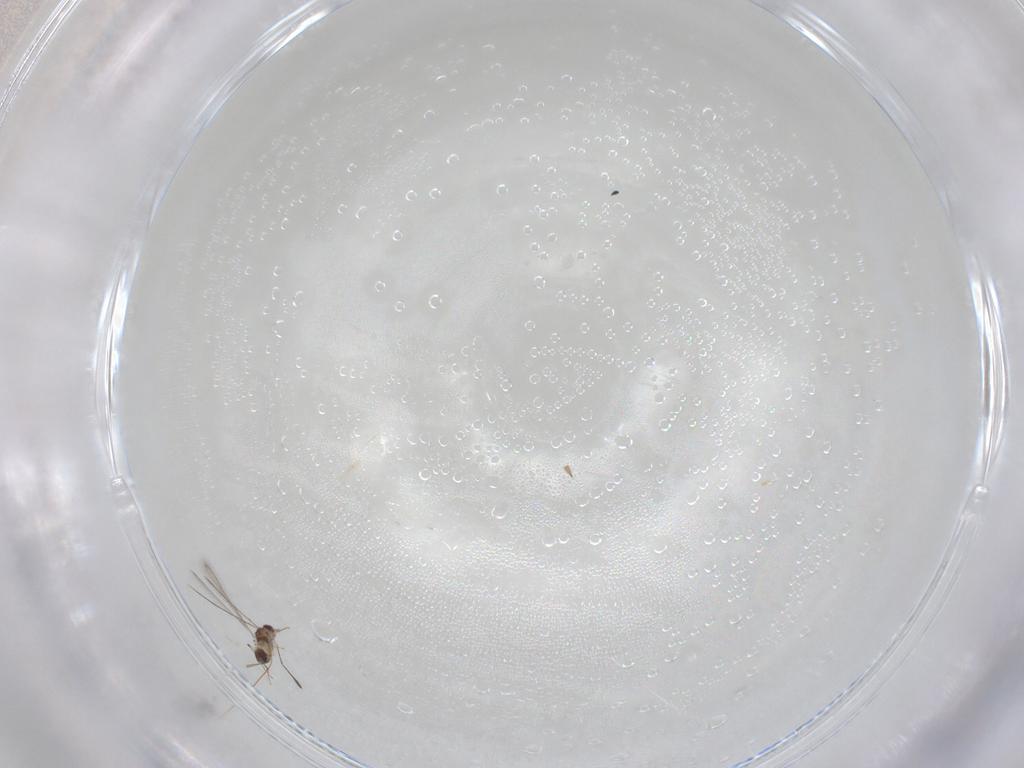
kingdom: Animalia
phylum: Arthropoda
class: Insecta
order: Hymenoptera
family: Mymaridae
